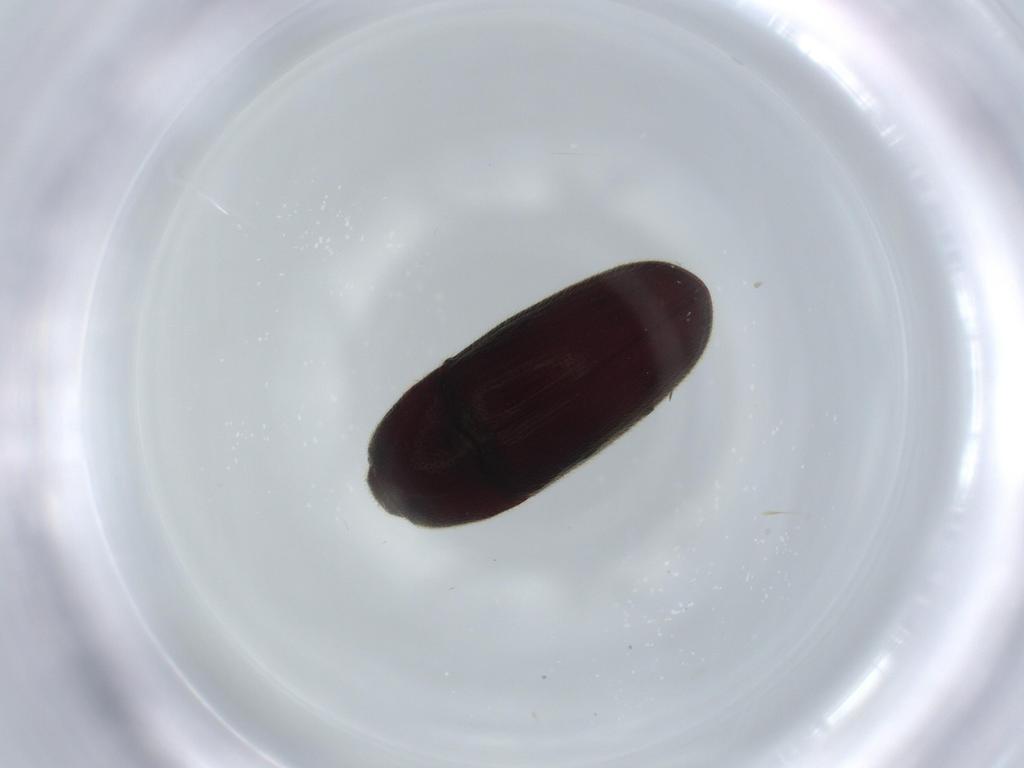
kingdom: Animalia
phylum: Arthropoda
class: Insecta
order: Coleoptera
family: Throscidae
